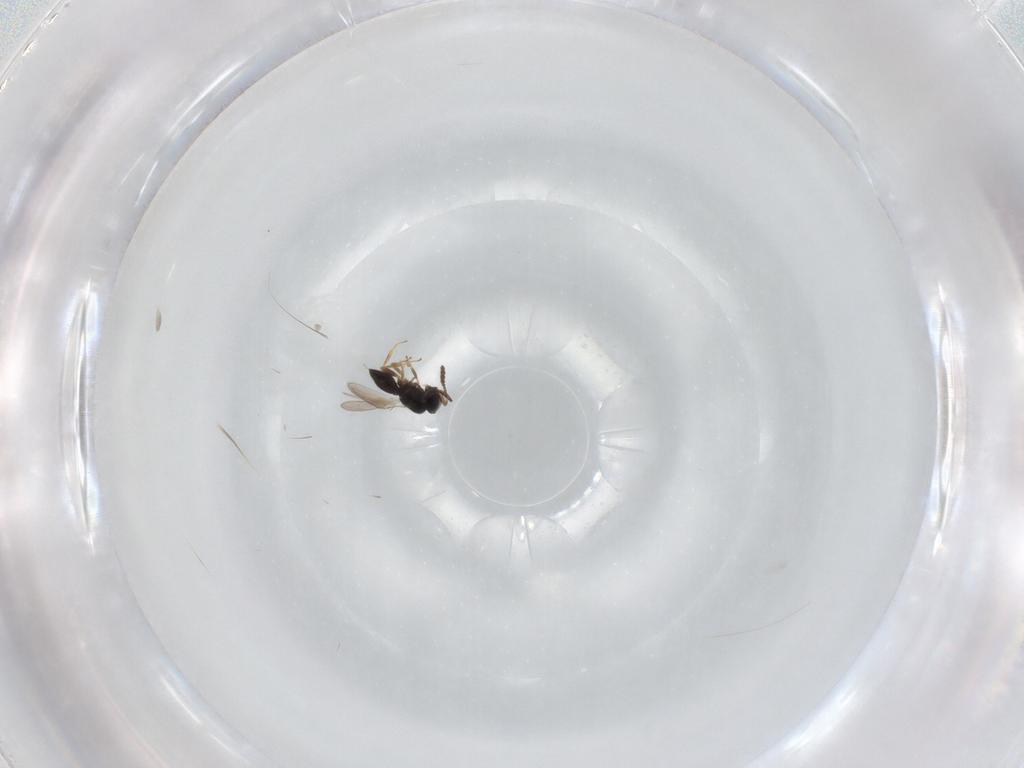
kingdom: Animalia
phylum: Arthropoda
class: Insecta
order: Hymenoptera
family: Scelionidae
